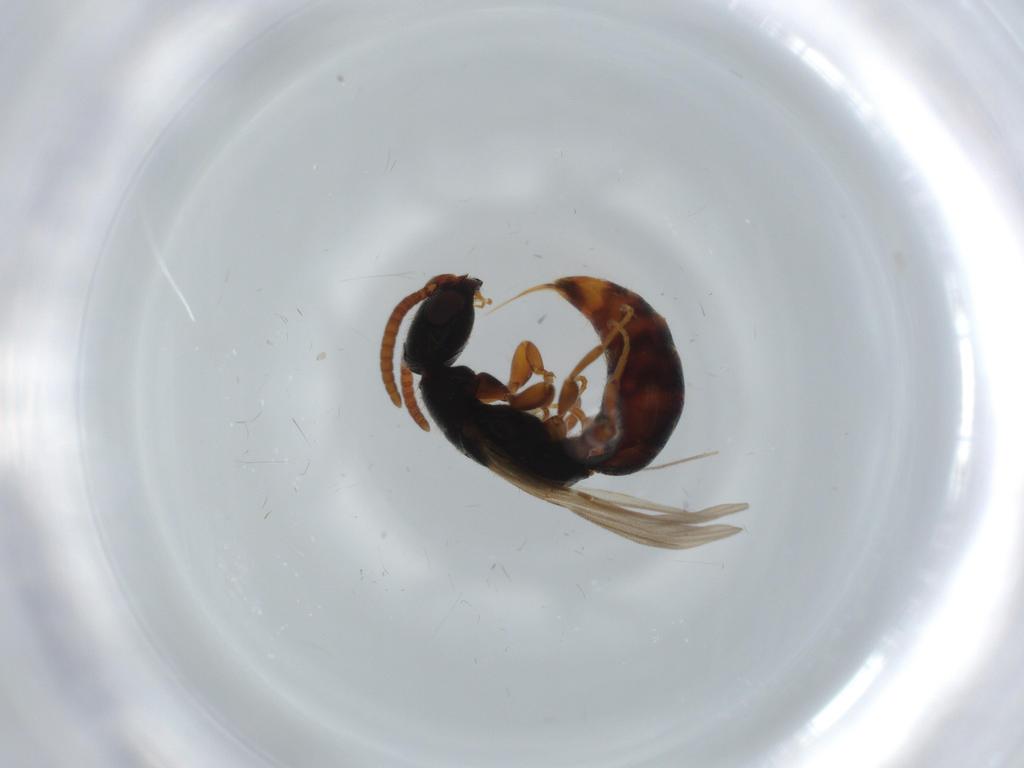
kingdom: Animalia
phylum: Arthropoda
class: Insecta
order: Hymenoptera
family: Bethylidae
